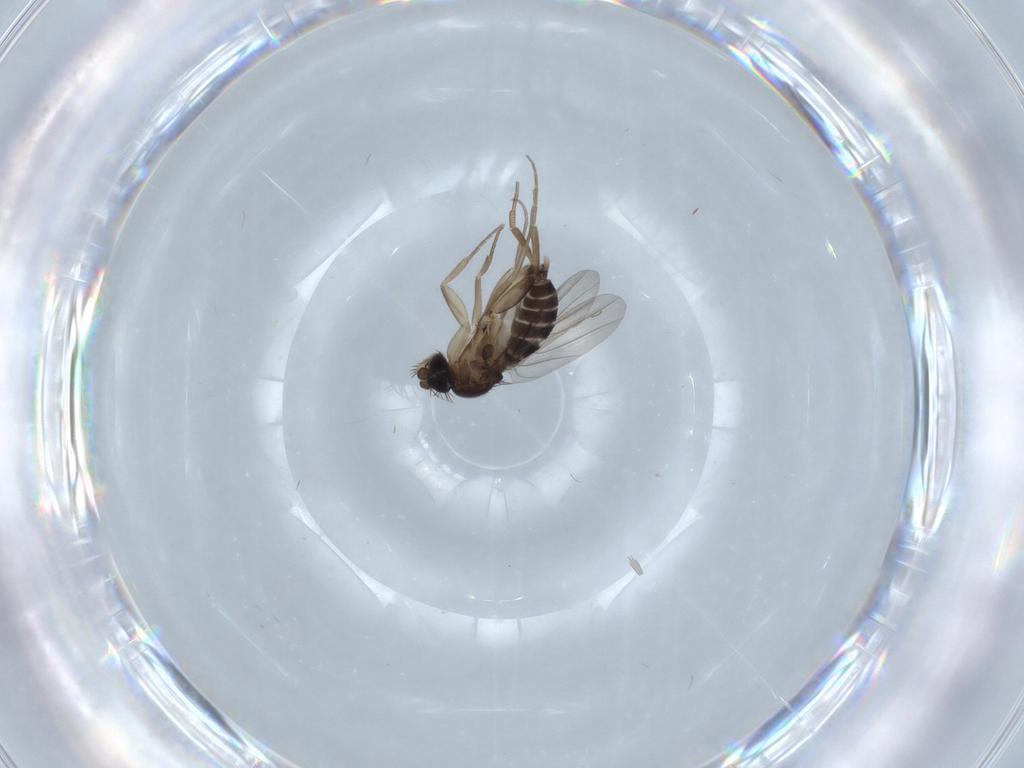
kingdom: Animalia
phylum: Arthropoda
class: Insecta
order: Diptera
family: Phoridae
